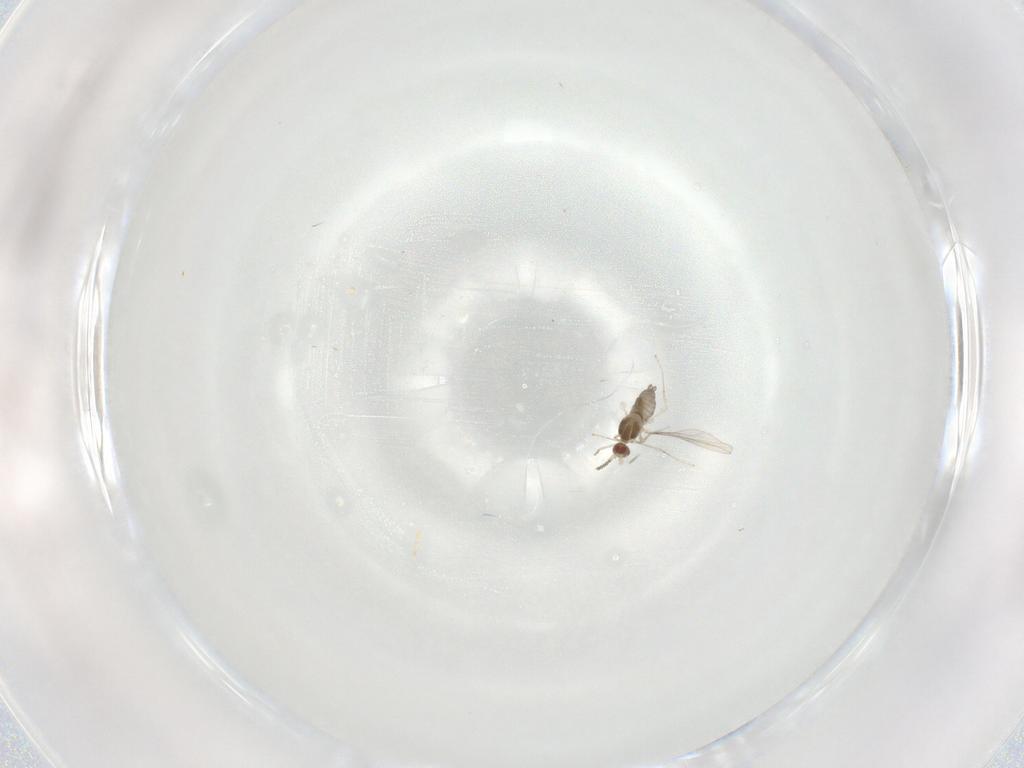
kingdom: Animalia
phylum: Arthropoda
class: Insecta
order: Diptera
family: Cecidomyiidae
